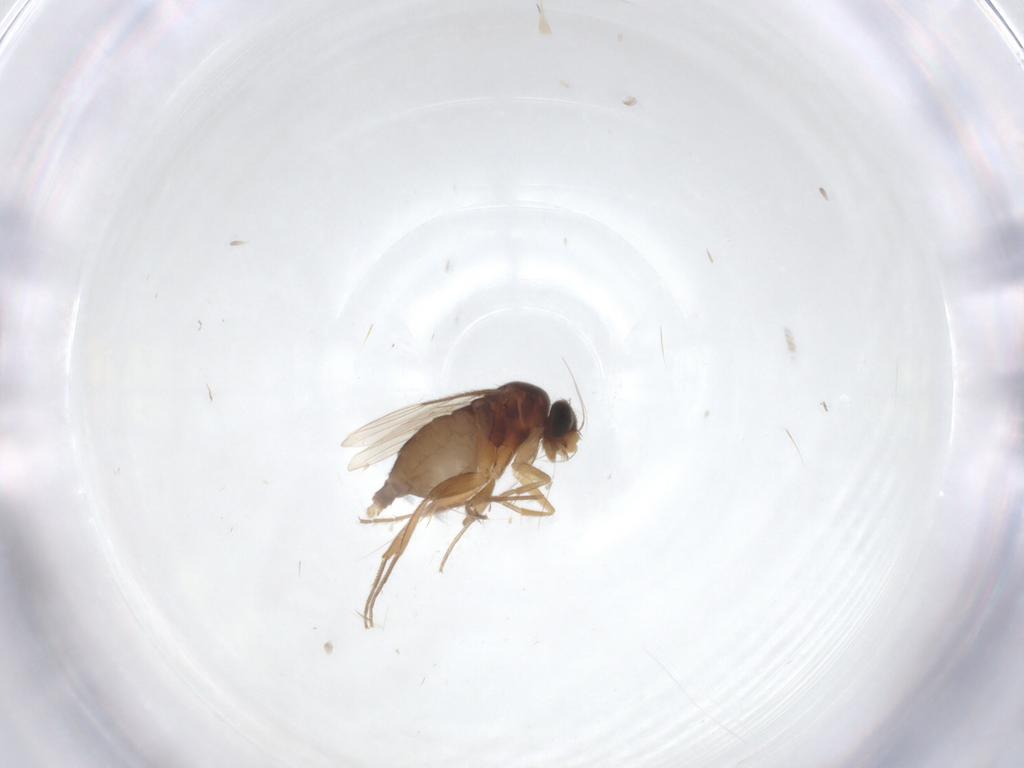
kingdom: Animalia
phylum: Arthropoda
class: Insecta
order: Diptera
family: Phoridae
